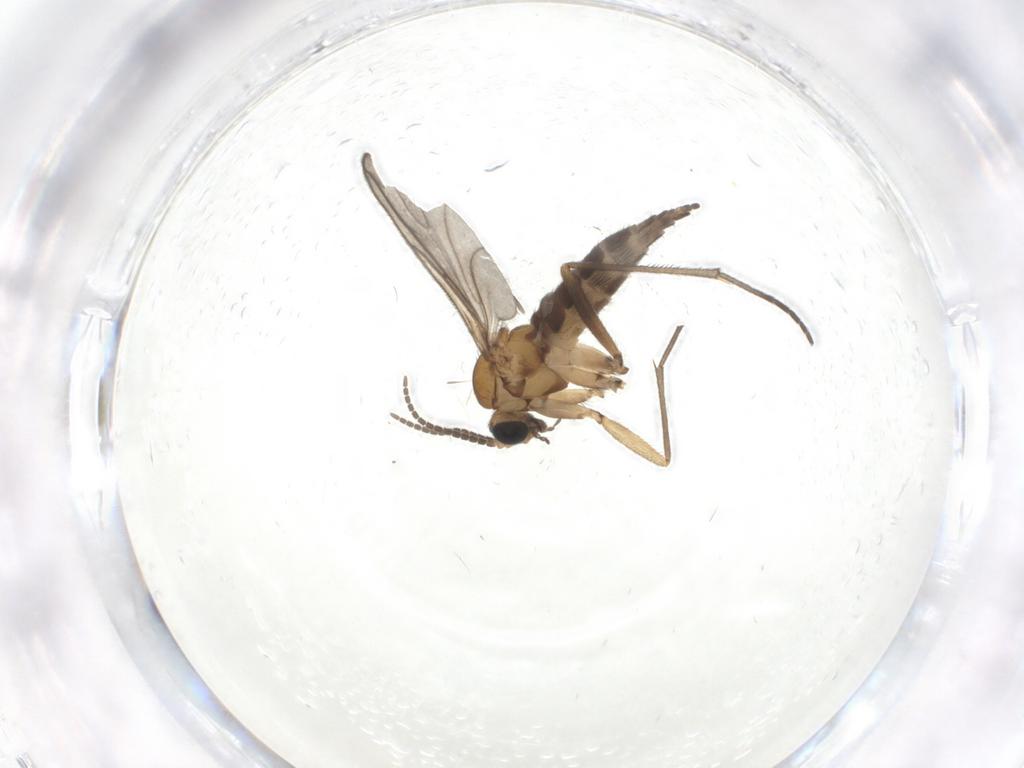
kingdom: Animalia
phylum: Arthropoda
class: Insecta
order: Diptera
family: Sciaridae
